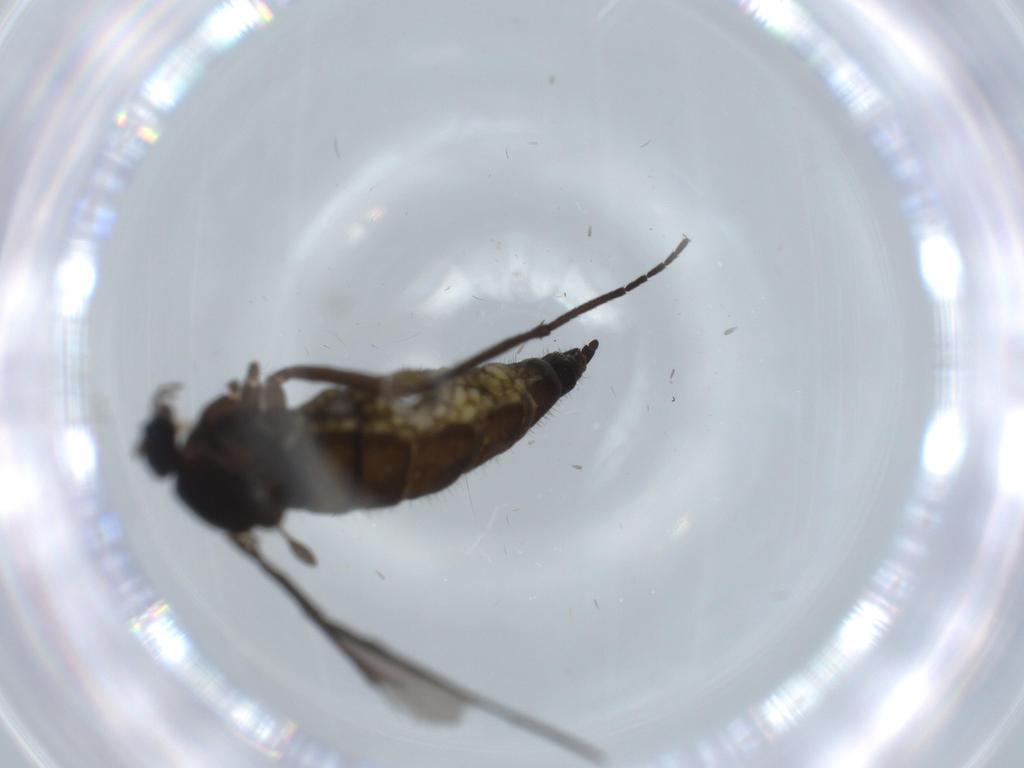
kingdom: Animalia
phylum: Arthropoda
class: Insecta
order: Diptera
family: Sciaridae
